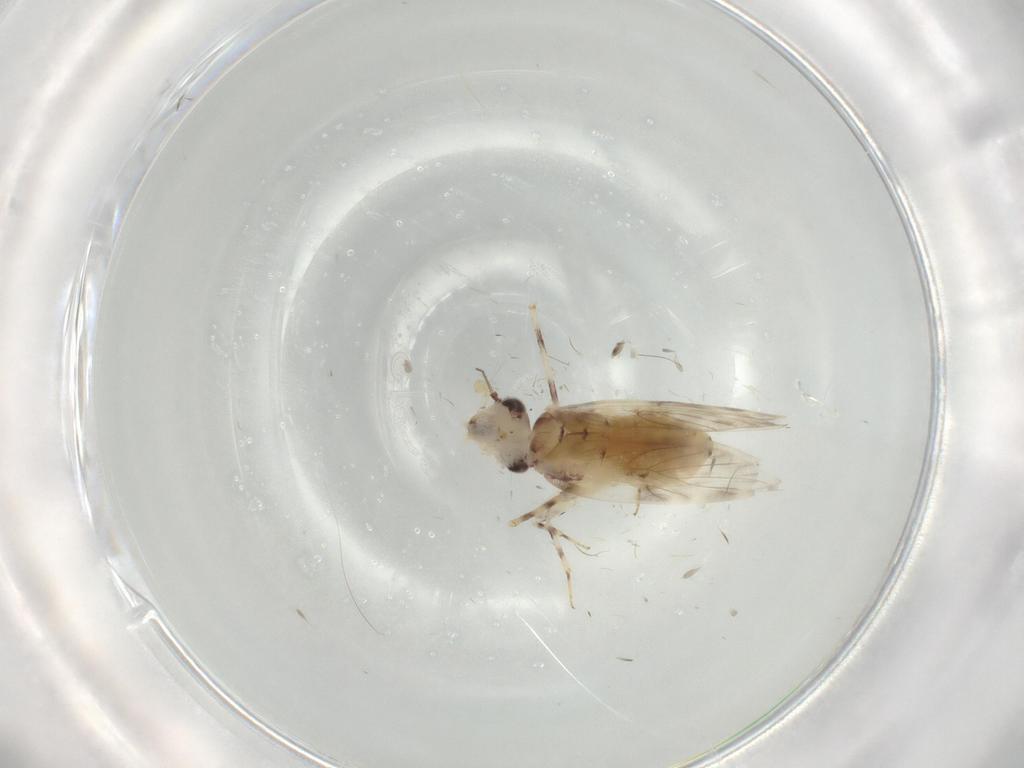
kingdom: Animalia
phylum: Arthropoda
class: Insecta
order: Psocodea
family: Lepidopsocidae
